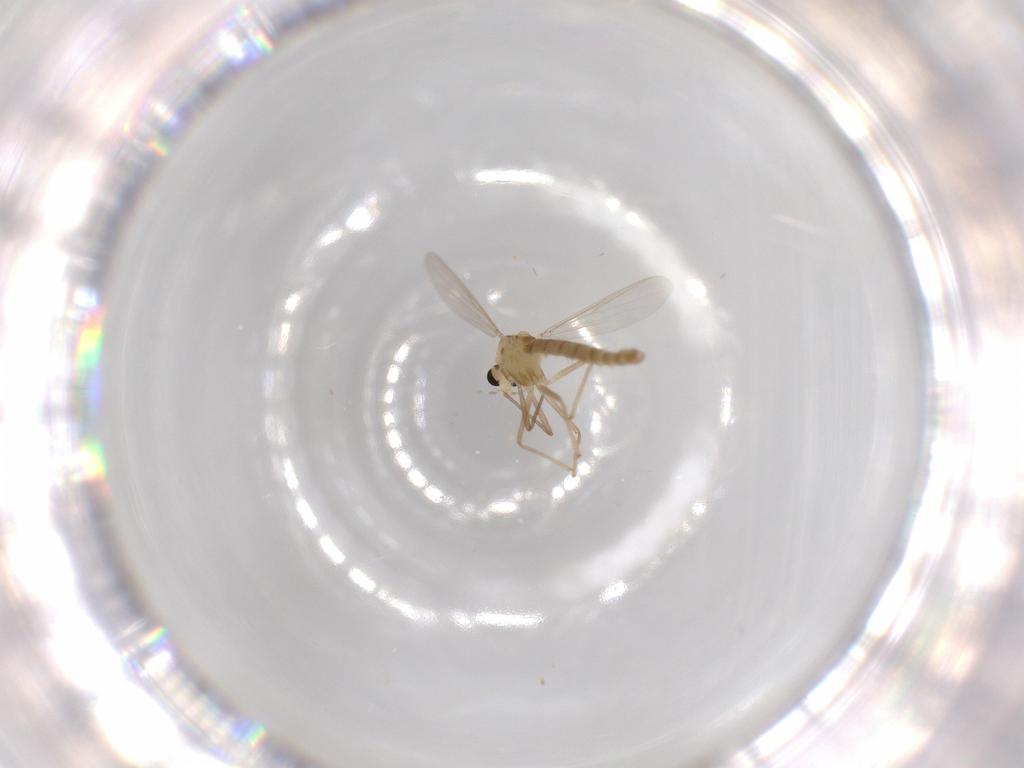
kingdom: Animalia
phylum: Arthropoda
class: Insecta
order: Diptera
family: Chironomidae
